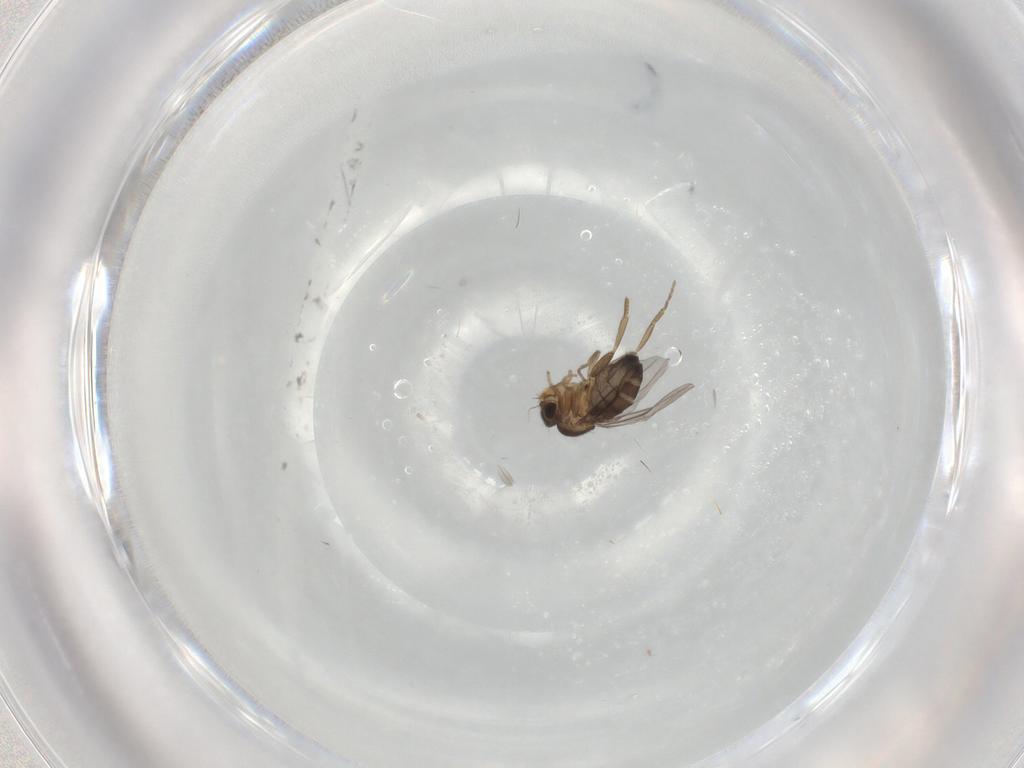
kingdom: Animalia
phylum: Arthropoda
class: Insecta
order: Diptera
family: Phoridae
